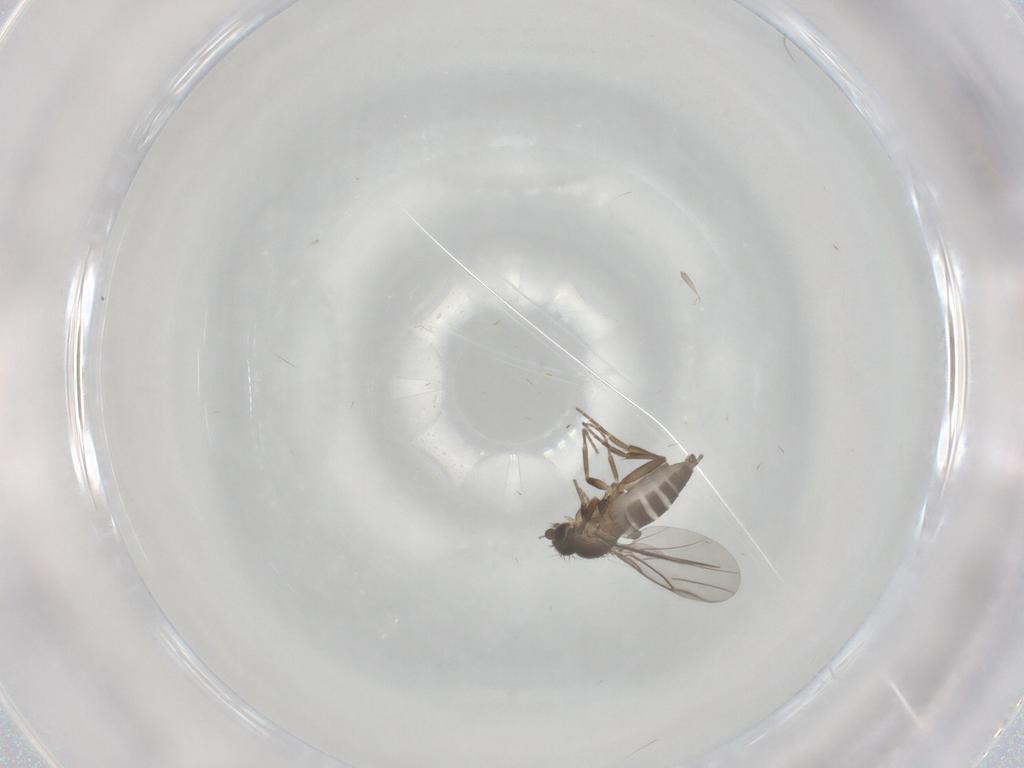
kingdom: Animalia
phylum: Arthropoda
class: Insecta
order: Diptera
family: Phoridae
